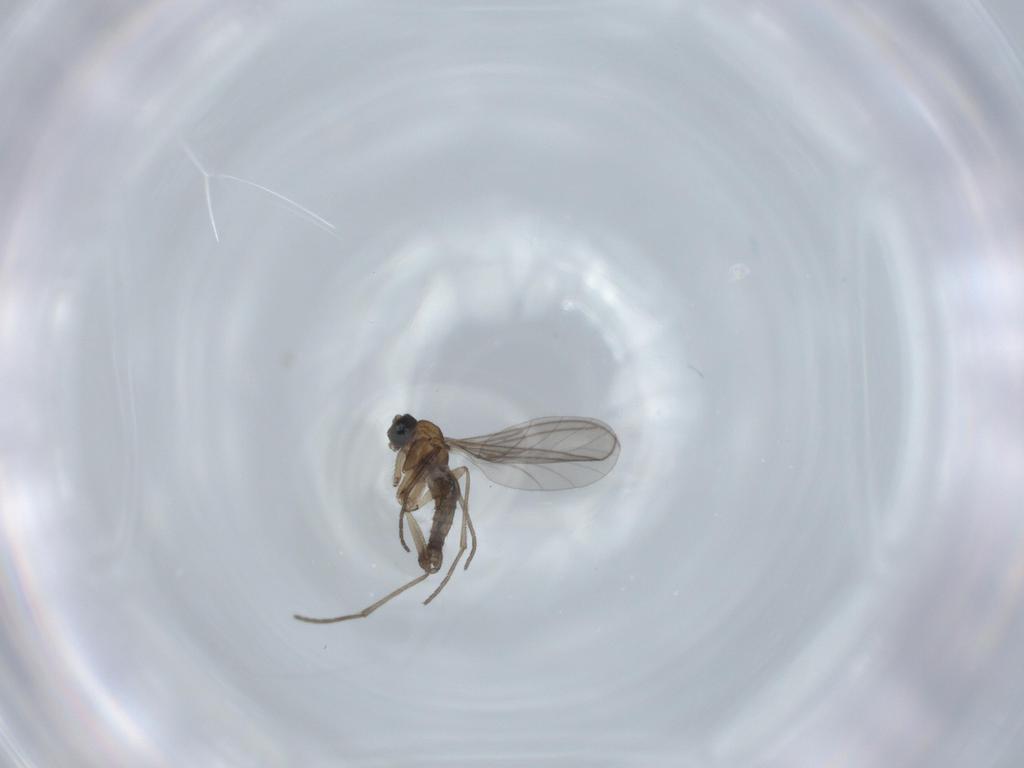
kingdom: Animalia
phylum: Arthropoda
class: Insecta
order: Diptera
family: Sciaridae
